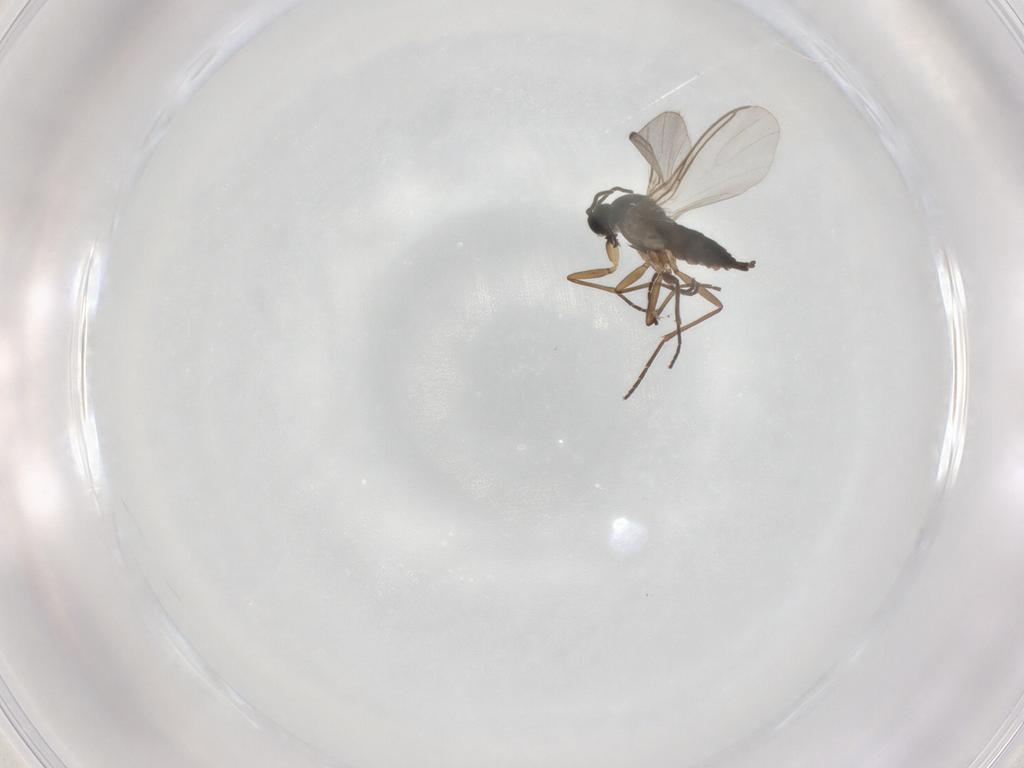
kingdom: Animalia
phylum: Arthropoda
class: Insecta
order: Diptera
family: Sciaridae
